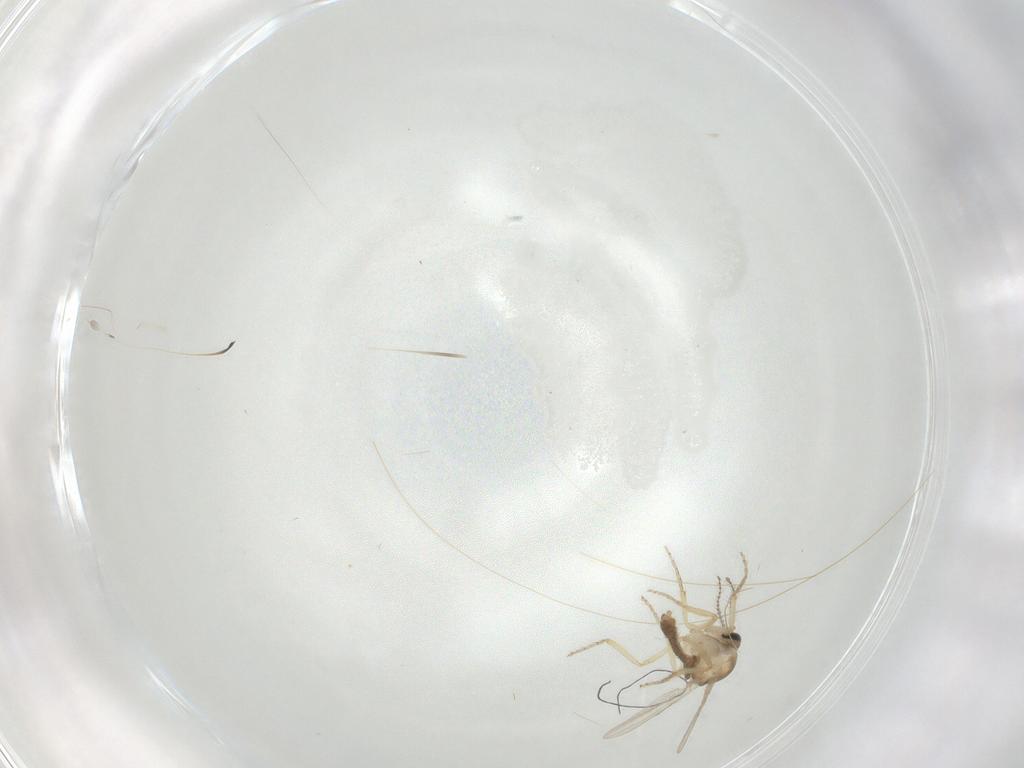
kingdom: Animalia
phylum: Arthropoda
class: Insecta
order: Diptera
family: Ceratopogonidae
